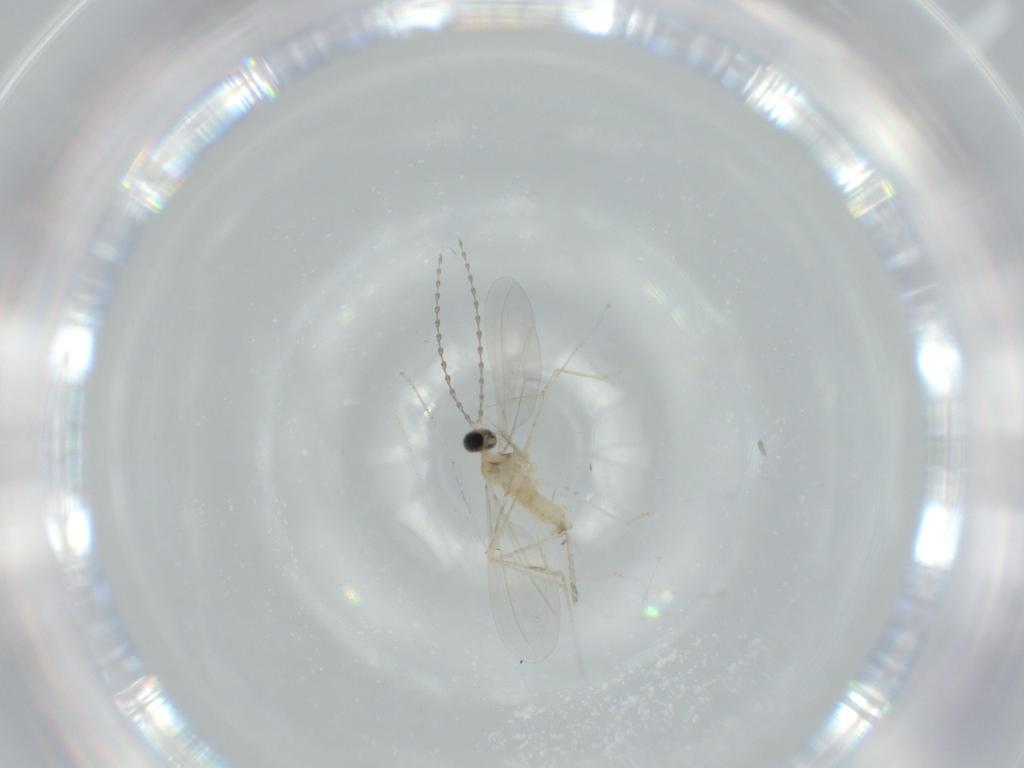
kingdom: Animalia
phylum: Arthropoda
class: Insecta
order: Diptera
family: Cecidomyiidae
